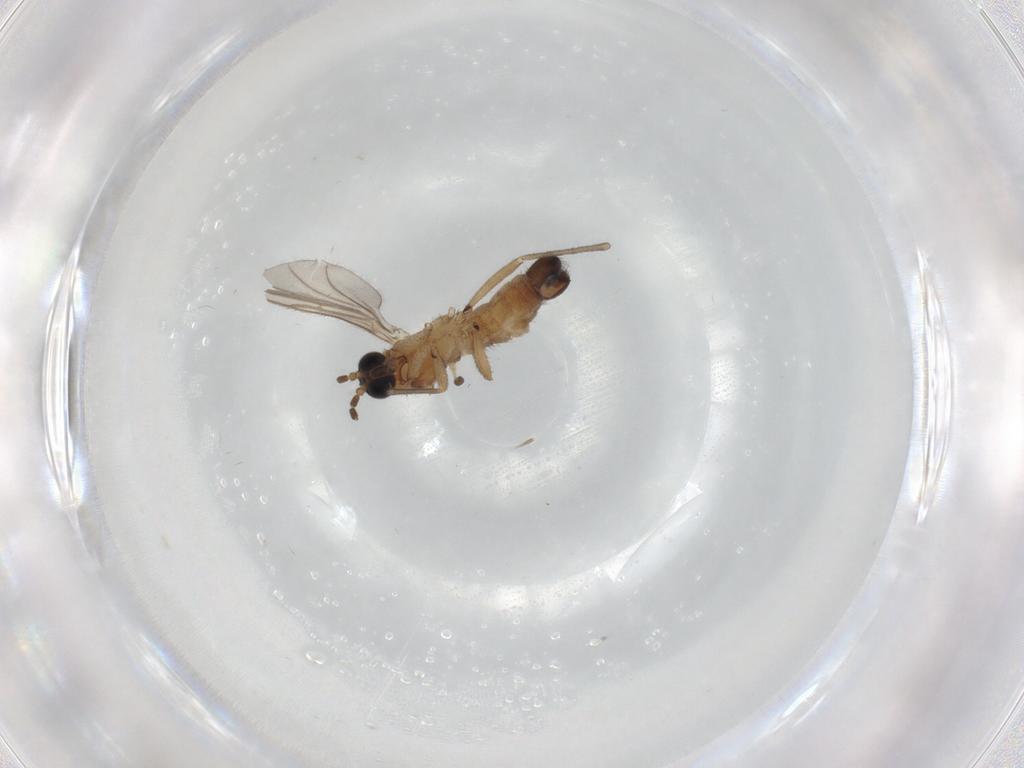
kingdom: Animalia
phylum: Arthropoda
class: Insecta
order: Diptera
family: Sciaridae
